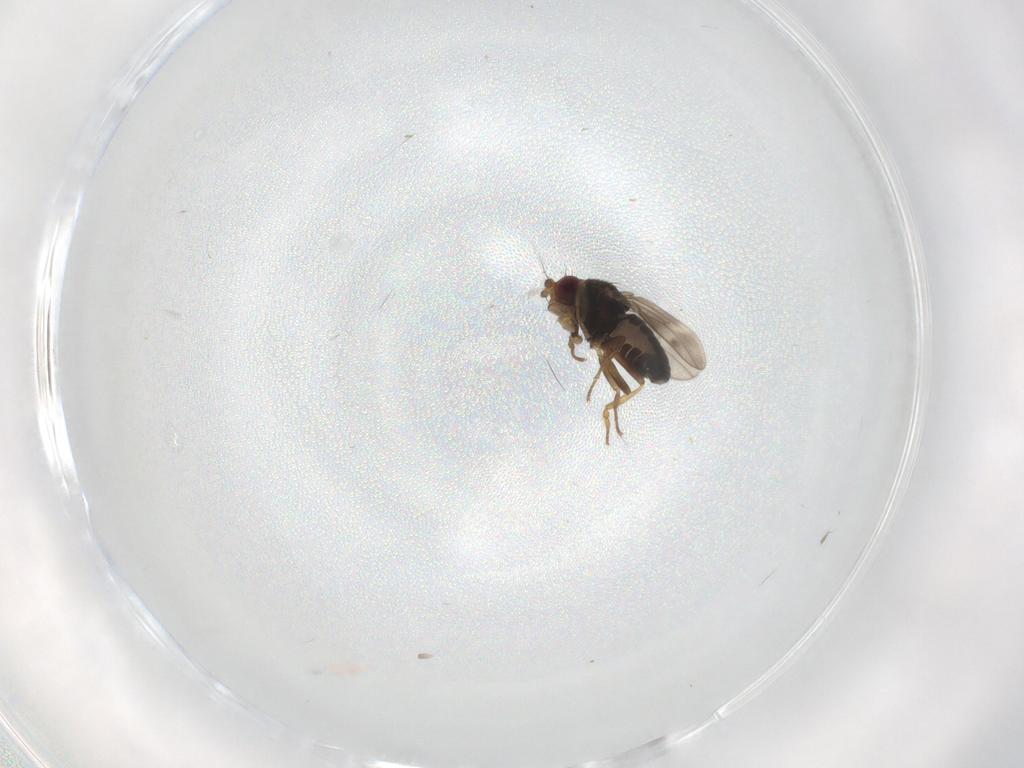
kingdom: Animalia
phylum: Arthropoda
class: Insecta
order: Diptera
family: Sphaeroceridae
